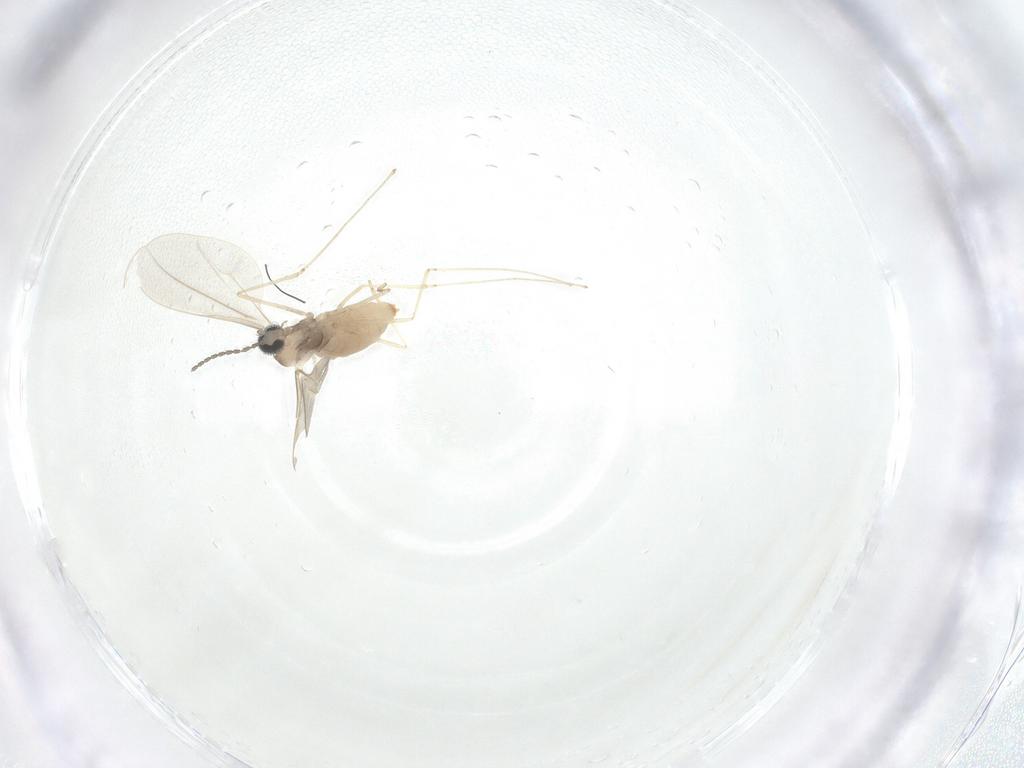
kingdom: Animalia
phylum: Arthropoda
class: Insecta
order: Diptera
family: Cecidomyiidae
